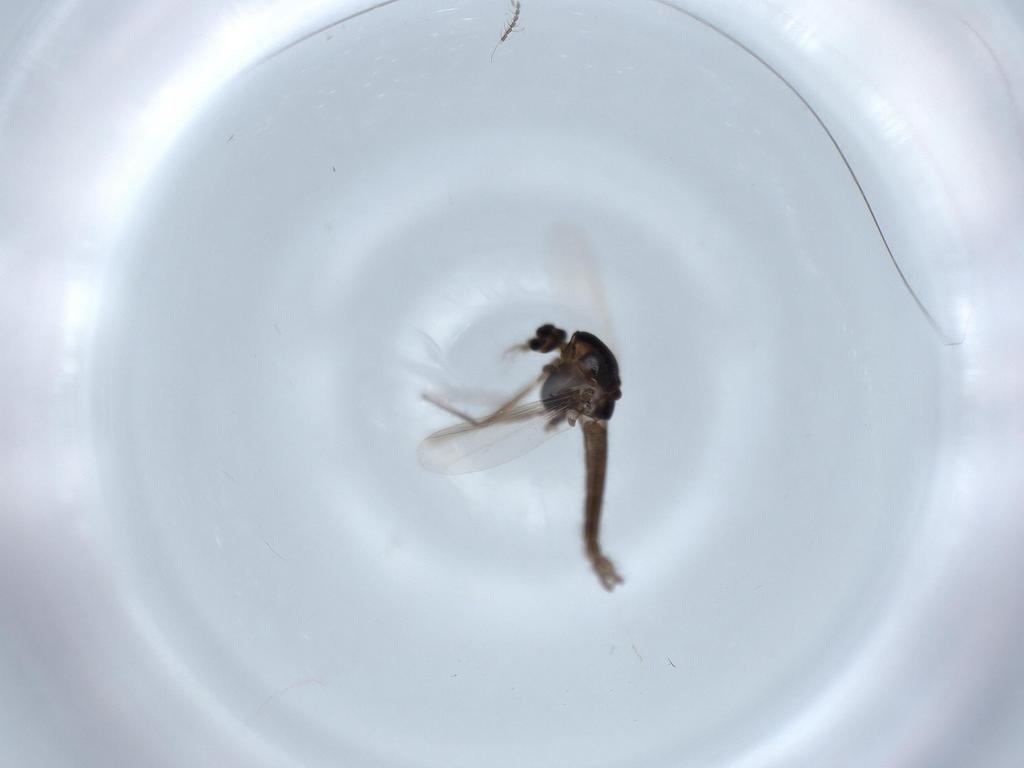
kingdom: Animalia
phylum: Arthropoda
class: Insecta
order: Diptera
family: Chironomidae
